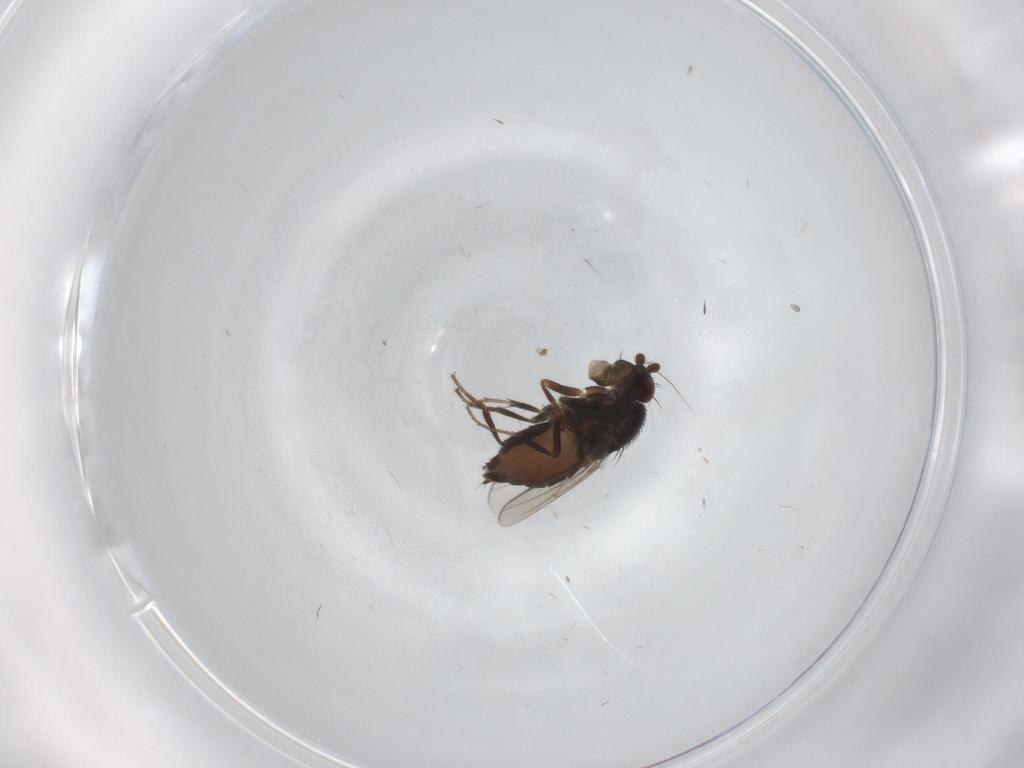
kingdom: Animalia
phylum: Arthropoda
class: Insecta
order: Diptera
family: Sphaeroceridae
